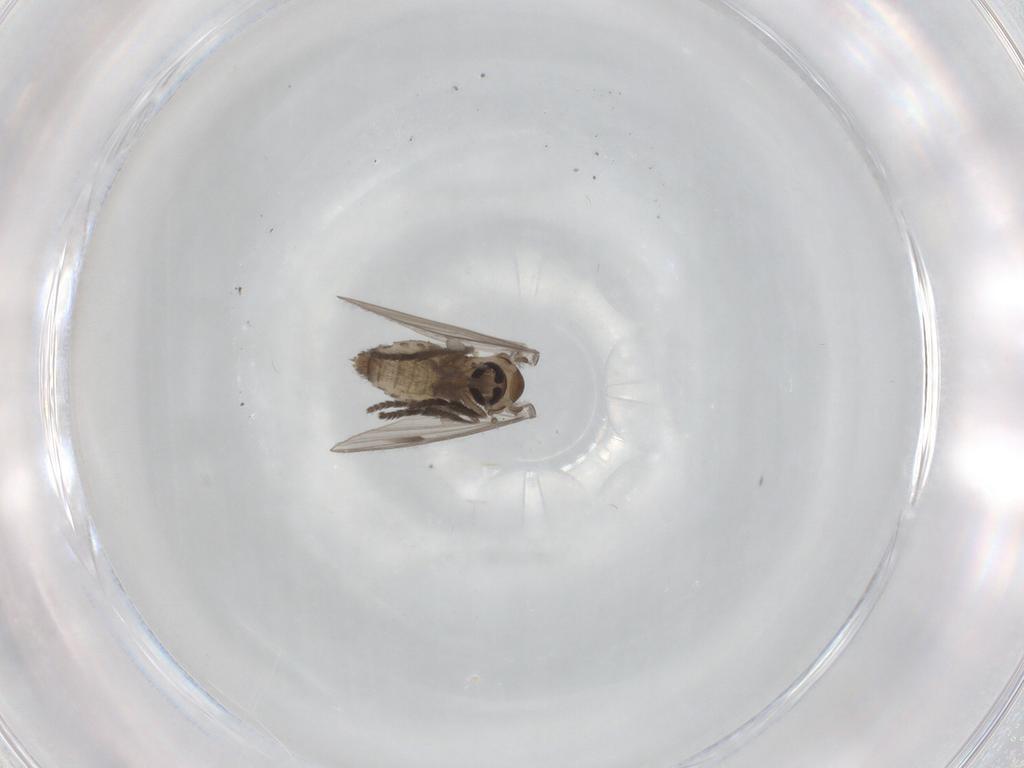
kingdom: Animalia
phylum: Arthropoda
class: Insecta
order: Diptera
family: Psychodidae
